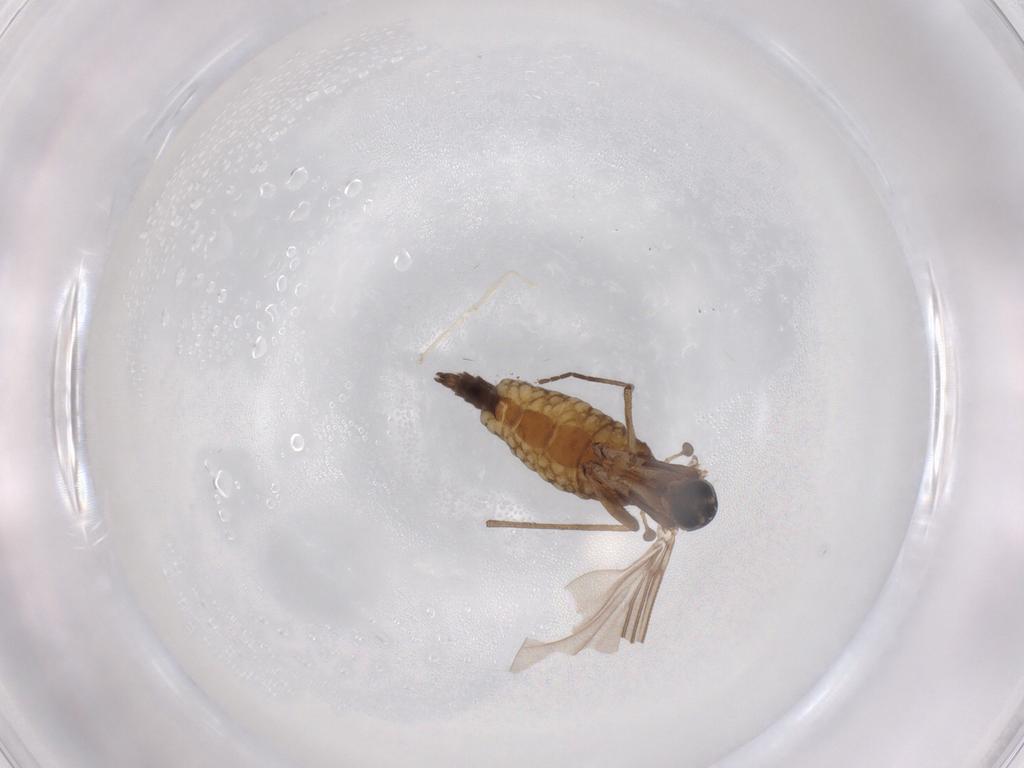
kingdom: Animalia
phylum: Arthropoda
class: Insecta
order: Diptera
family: Sciaridae
